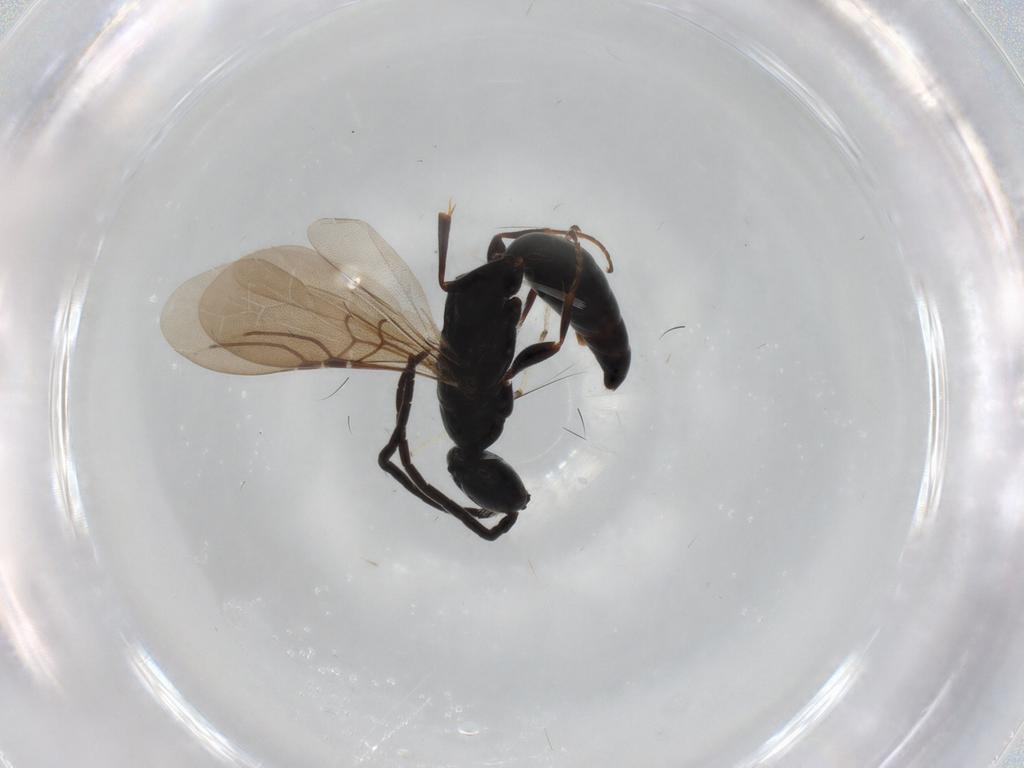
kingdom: Animalia
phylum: Arthropoda
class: Insecta
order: Hymenoptera
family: Bethylidae
